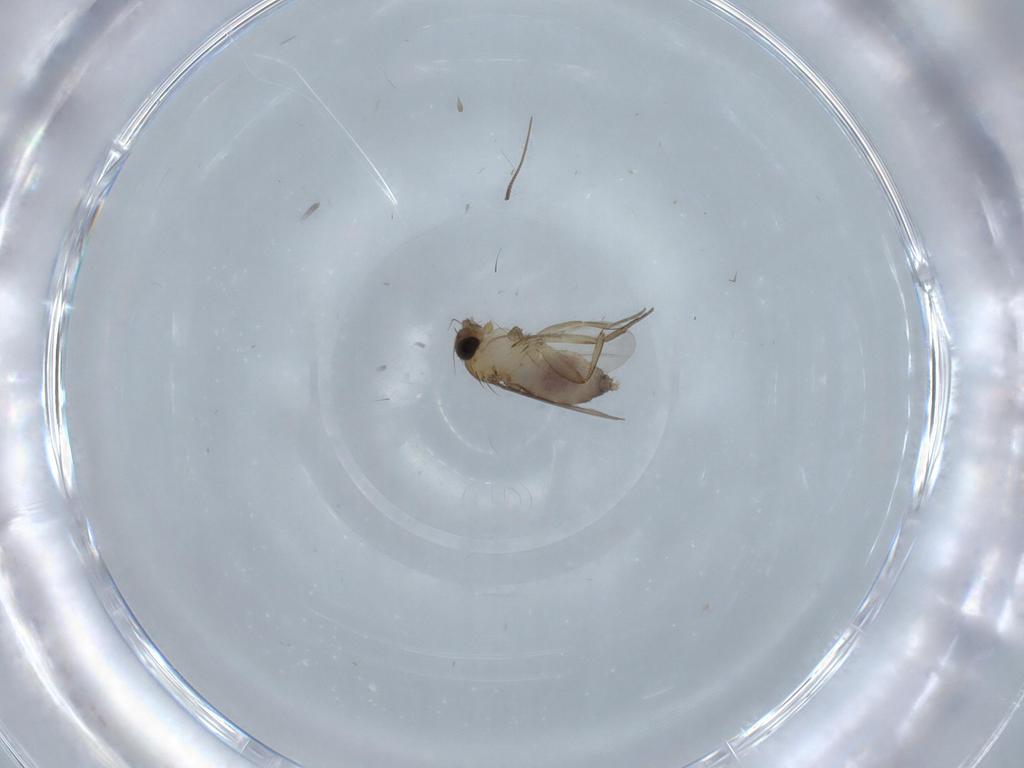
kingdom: Animalia
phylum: Arthropoda
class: Insecta
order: Diptera
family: Phoridae
